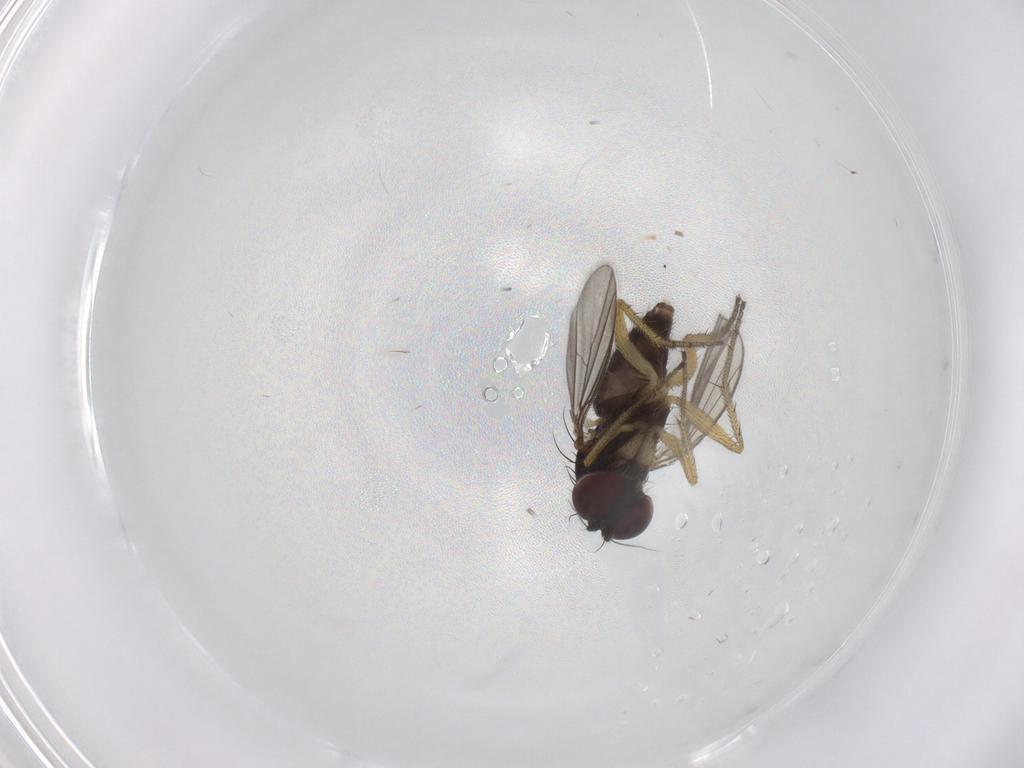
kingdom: Animalia
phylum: Arthropoda
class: Insecta
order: Diptera
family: Dolichopodidae
